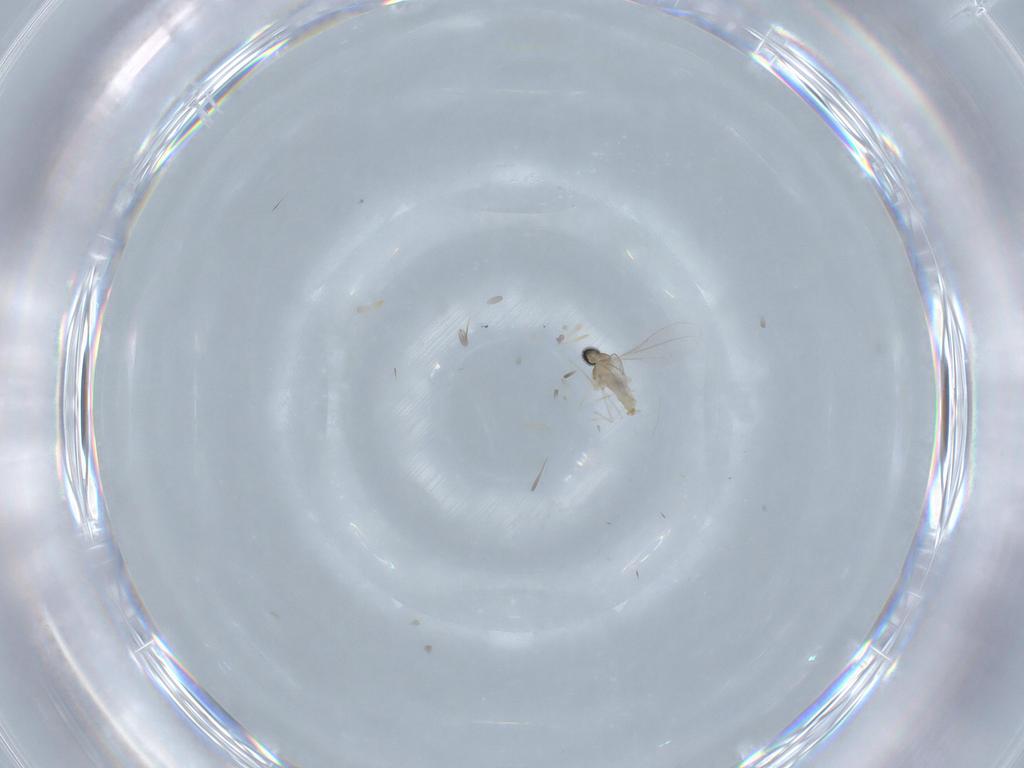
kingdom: Animalia
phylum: Arthropoda
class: Insecta
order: Diptera
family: Cecidomyiidae
